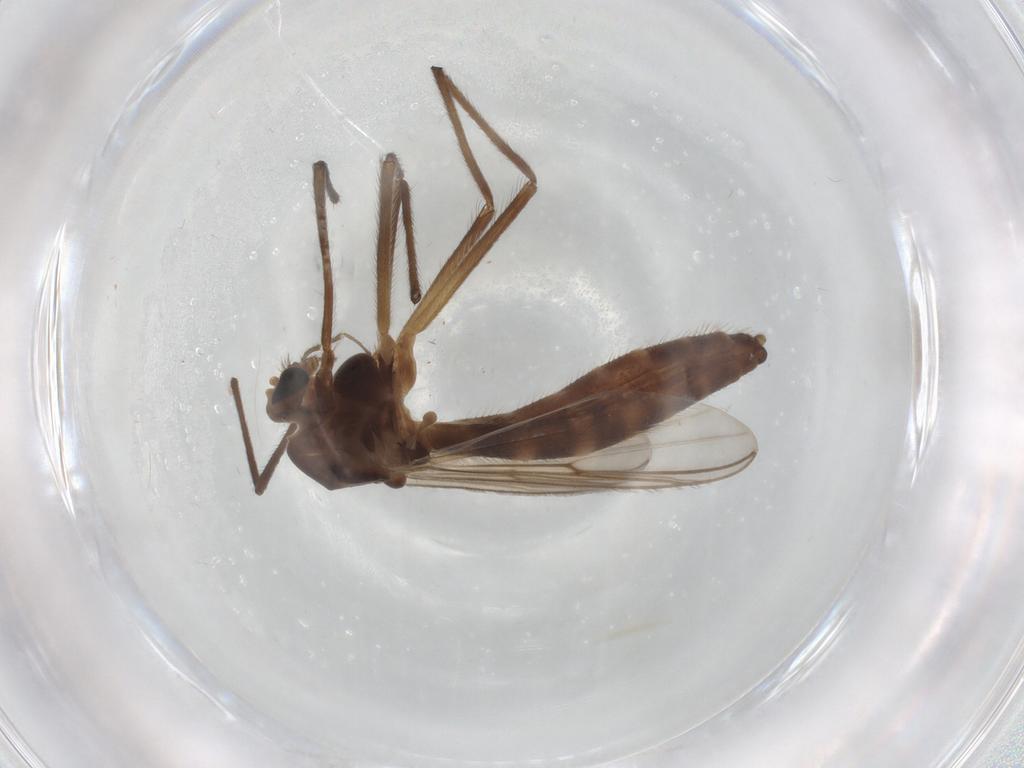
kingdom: Animalia
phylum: Arthropoda
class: Insecta
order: Diptera
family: Chironomidae
